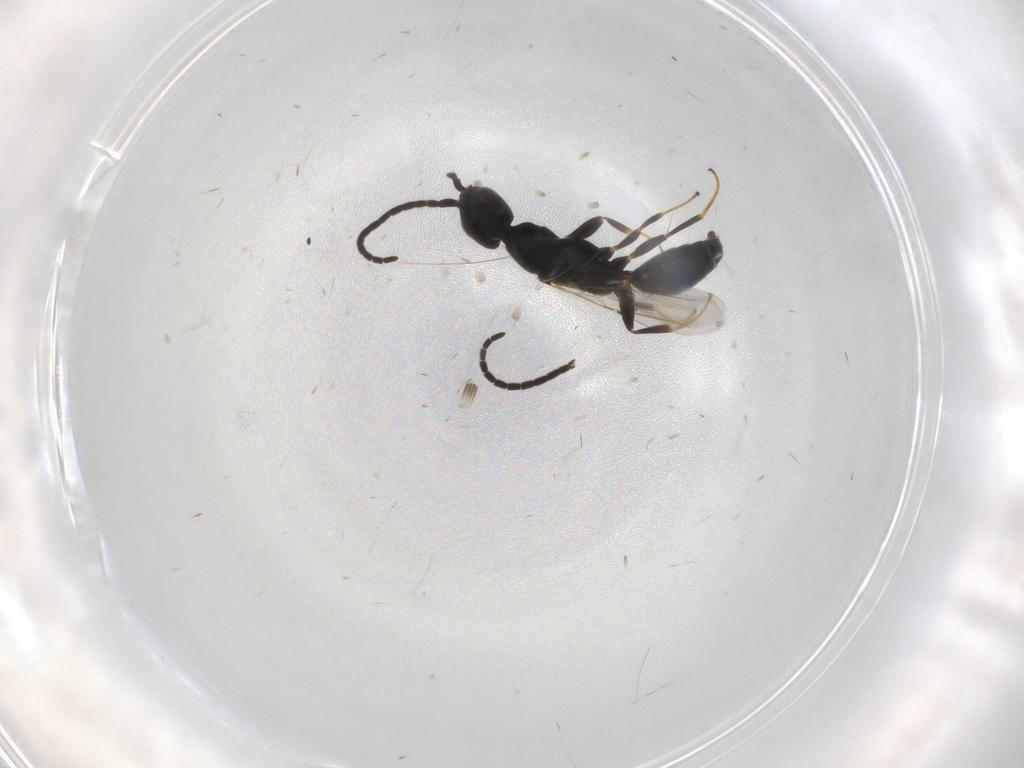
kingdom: Animalia
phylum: Arthropoda
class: Insecta
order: Hymenoptera
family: Bethylidae
